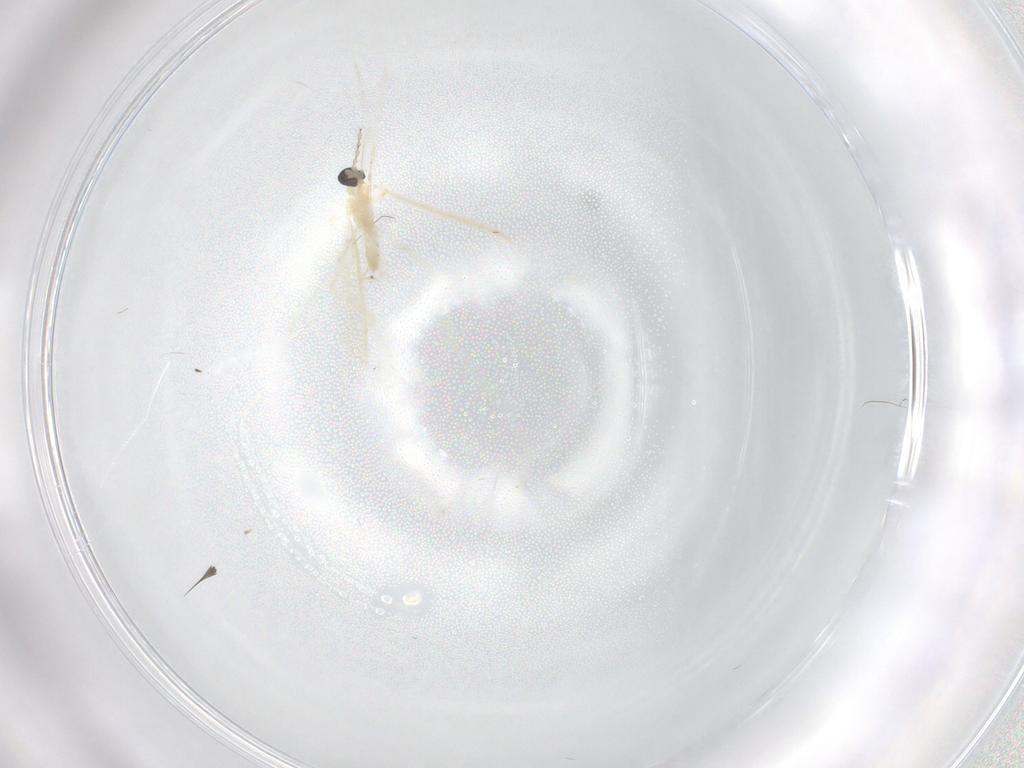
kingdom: Animalia
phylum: Arthropoda
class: Insecta
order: Diptera
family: Cecidomyiidae
